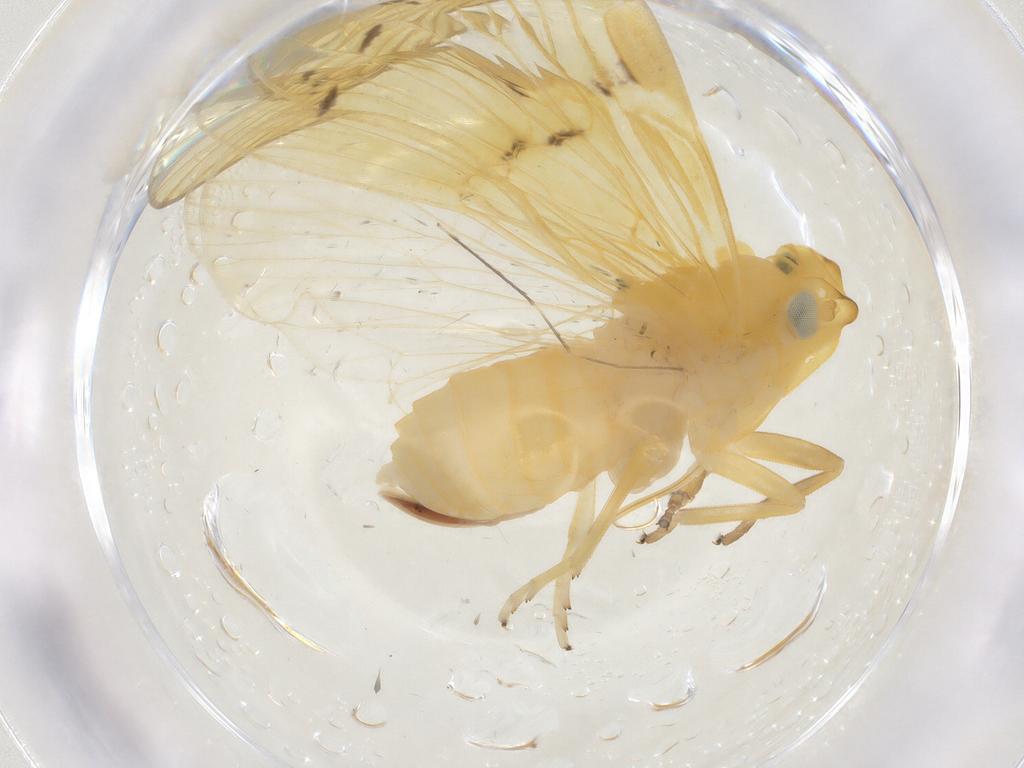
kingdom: Animalia
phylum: Arthropoda
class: Insecta
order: Hemiptera
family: Cixiidae
